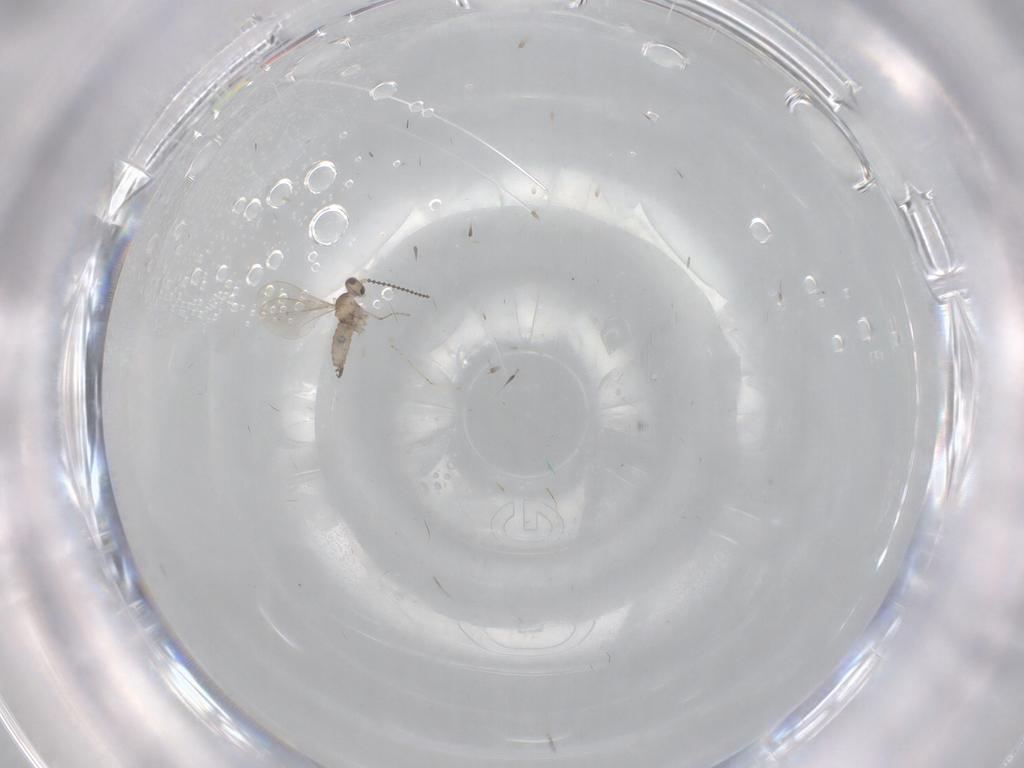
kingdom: Animalia
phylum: Arthropoda
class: Insecta
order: Diptera
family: Cecidomyiidae
